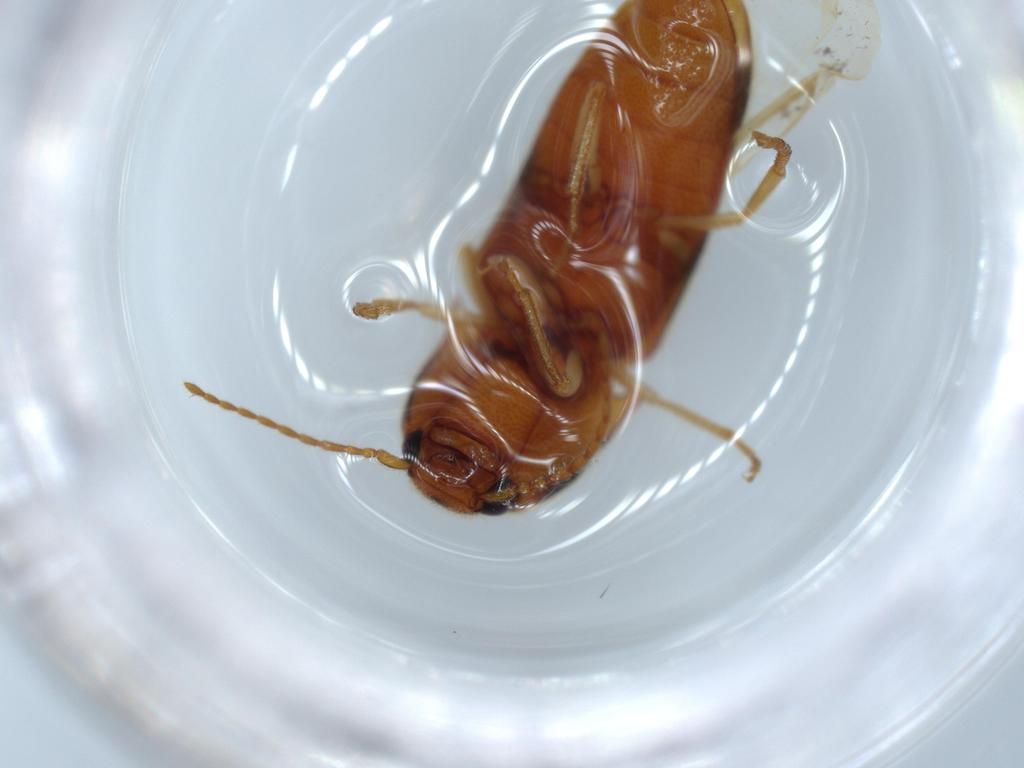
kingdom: Animalia
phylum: Arthropoda
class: Insecta
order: Coleoptera
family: Elateridae
